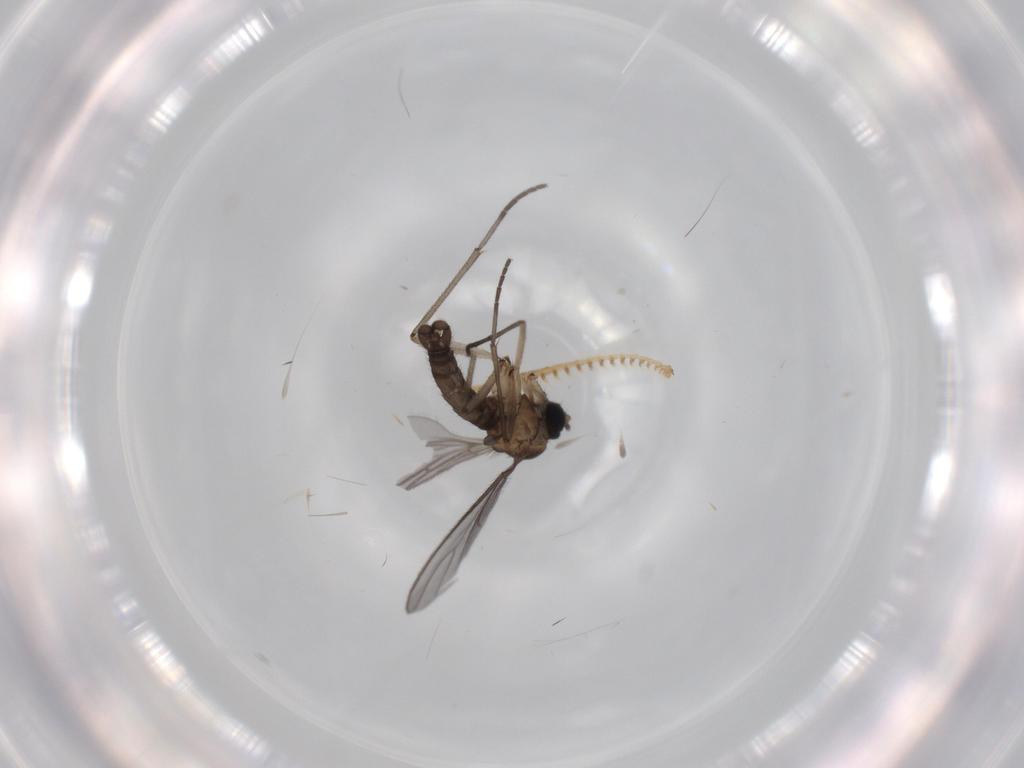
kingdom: Animalia
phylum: Arthropoda
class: Insecta
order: Diptera
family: Sciaridae
